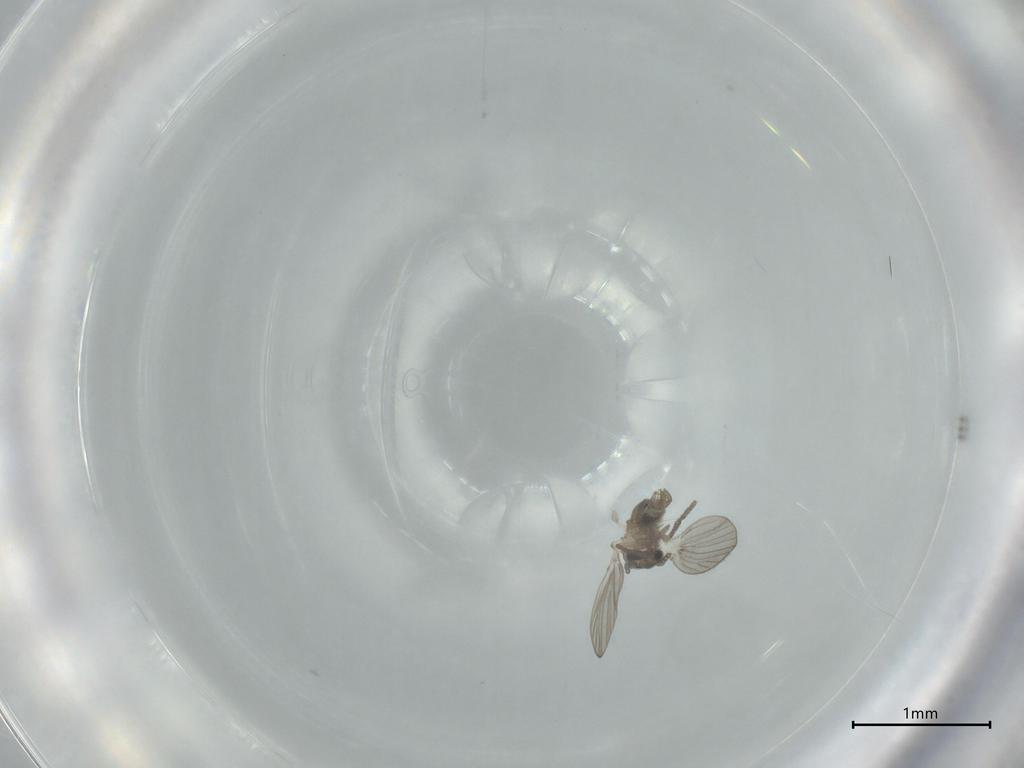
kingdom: Animalia
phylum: Arthropoda
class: Insecta
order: Diptera
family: Psychodidae
